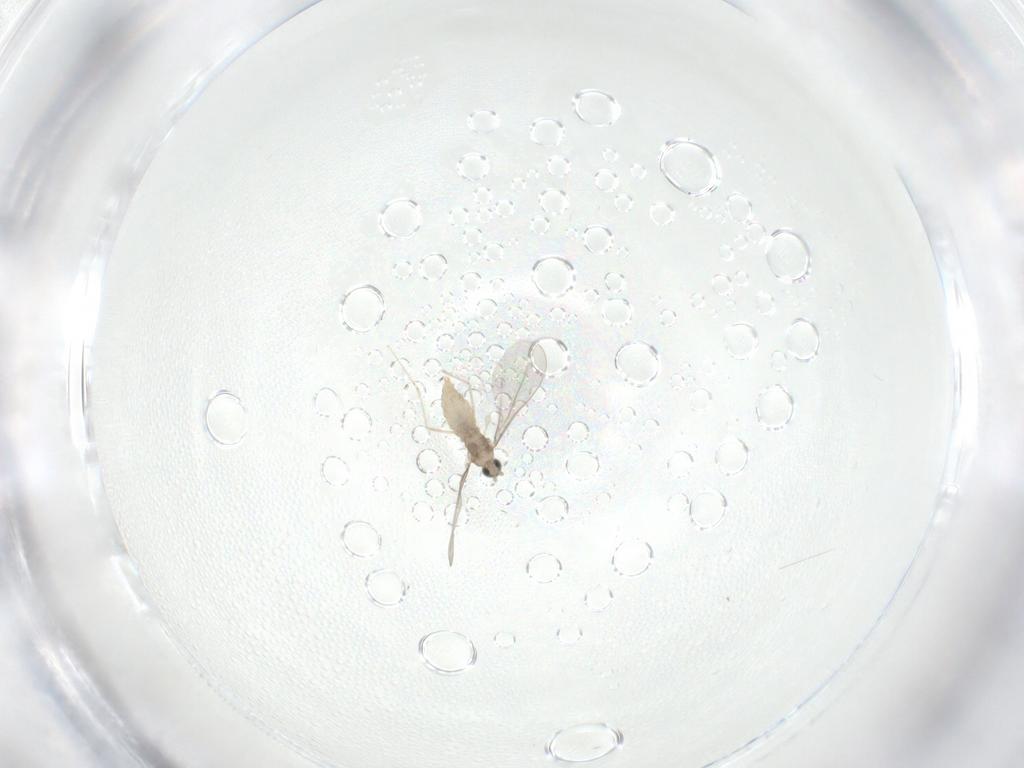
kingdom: Animalia
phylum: Arthropoda
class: Insecta
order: Diptera
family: Cecidomyiidae
